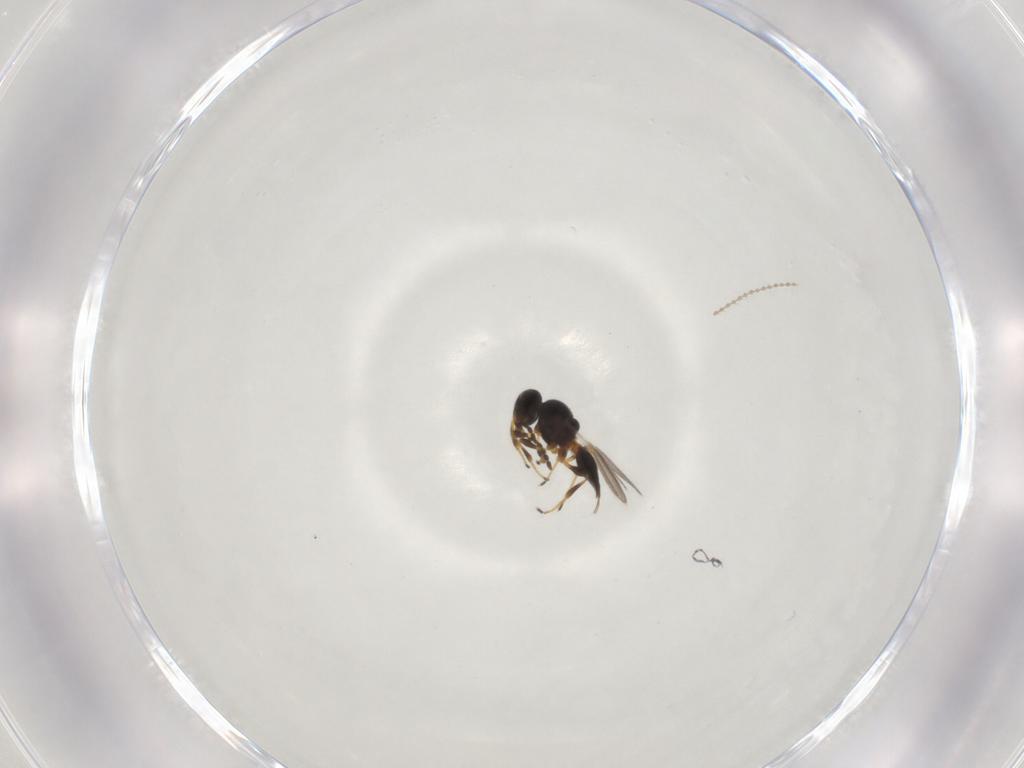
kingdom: Animalia
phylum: Arthropoda
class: Insecta
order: Hymenoptera
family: Platygastridae
